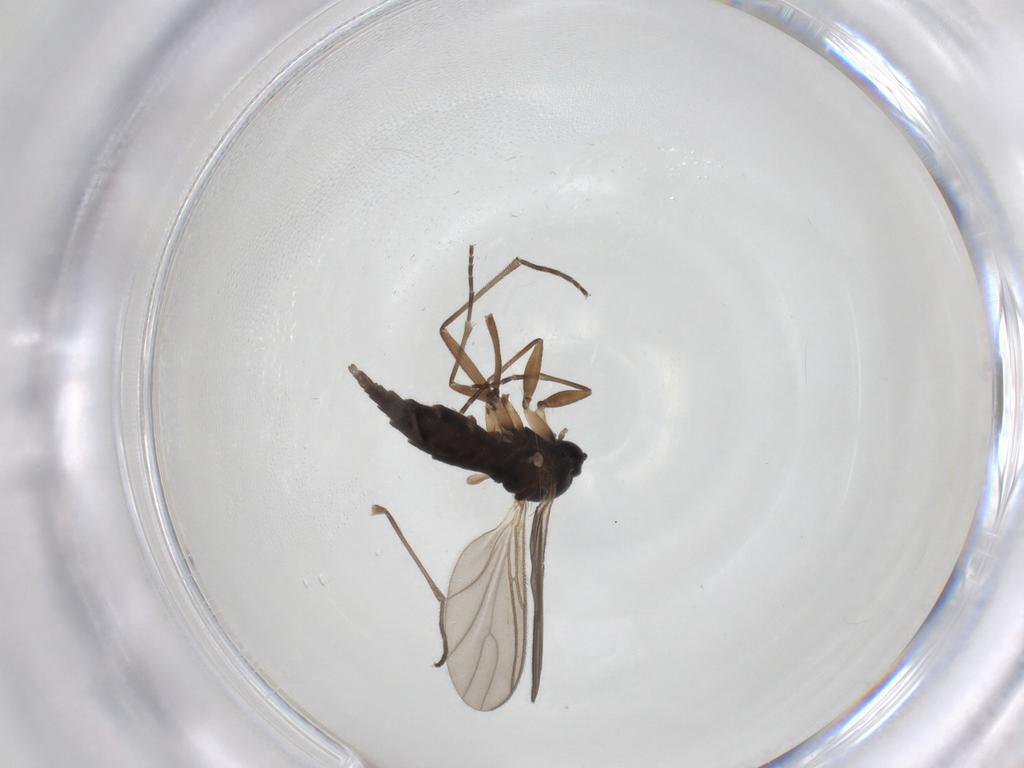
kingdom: Animalia
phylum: Arthropoda
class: Insecta
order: Diptera
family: Sciaridae
